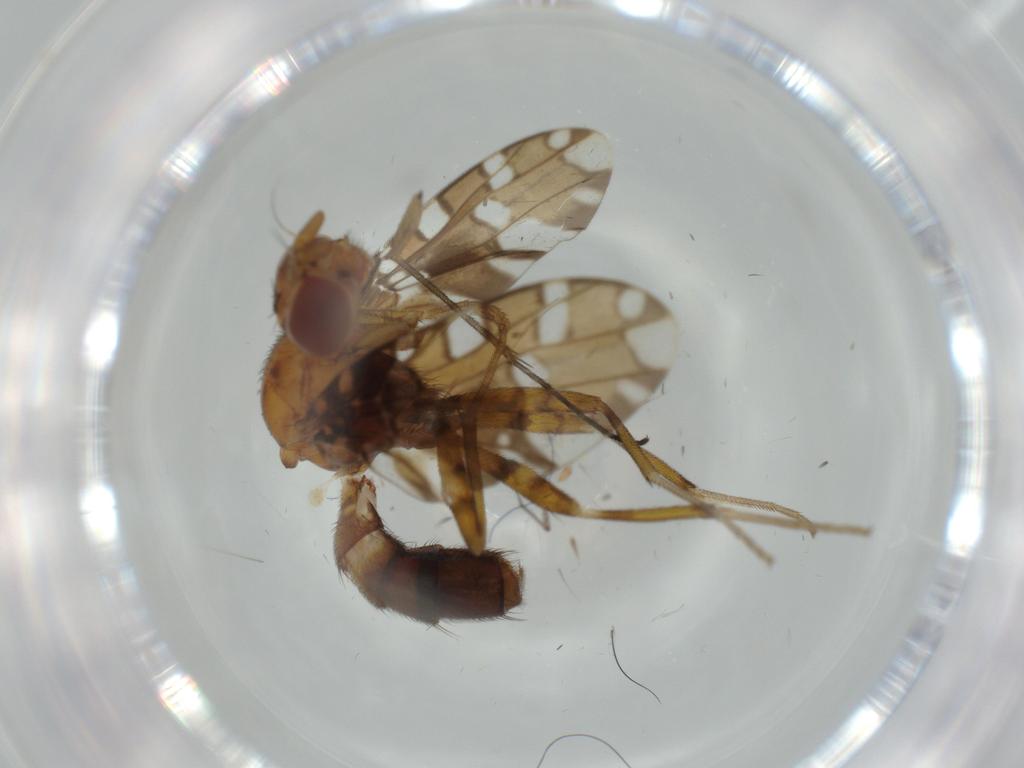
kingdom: Animalia
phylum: Arthropoda
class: Insecta
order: Diptera
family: Ulidiidae
